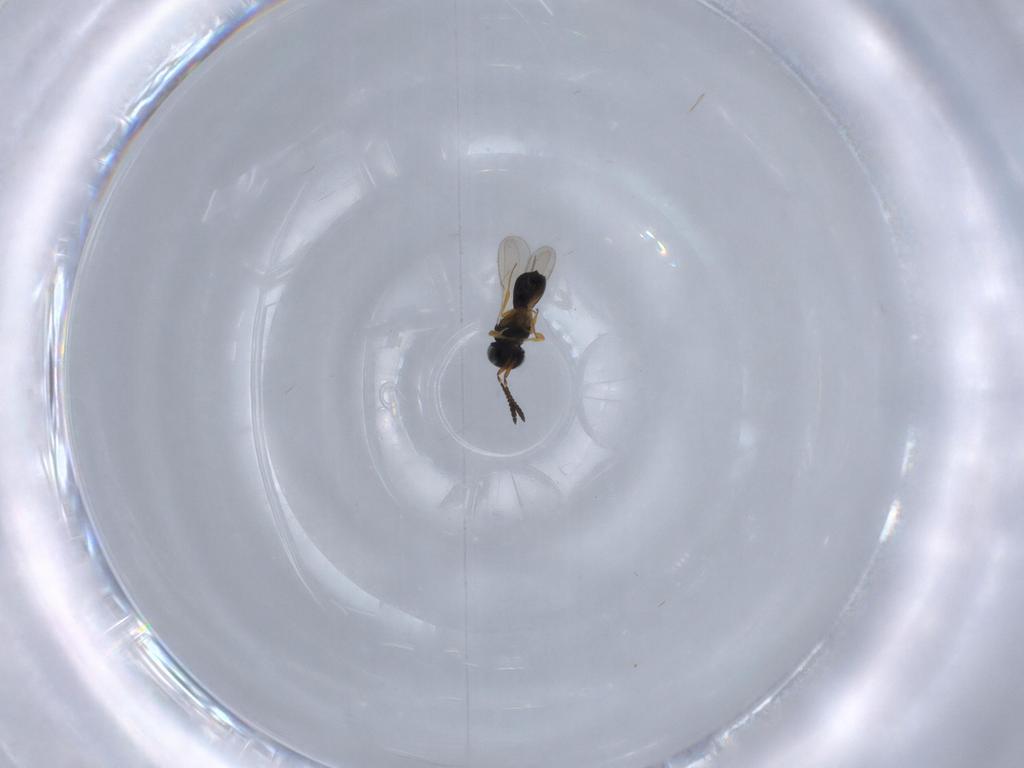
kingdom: Animalia
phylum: Arthropoda
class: Insecta
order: Hymenoptera
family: Scelionidae
